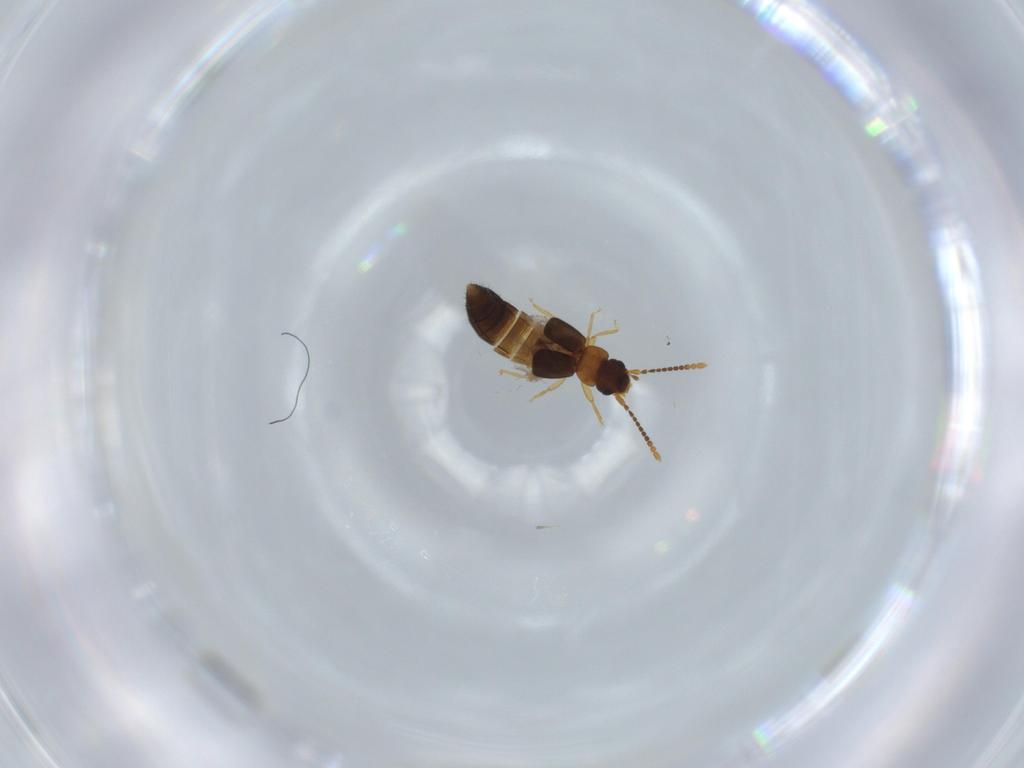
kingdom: Animalia
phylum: Arthropoda
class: Insecta
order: Coleoptera
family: Staphylinidae
